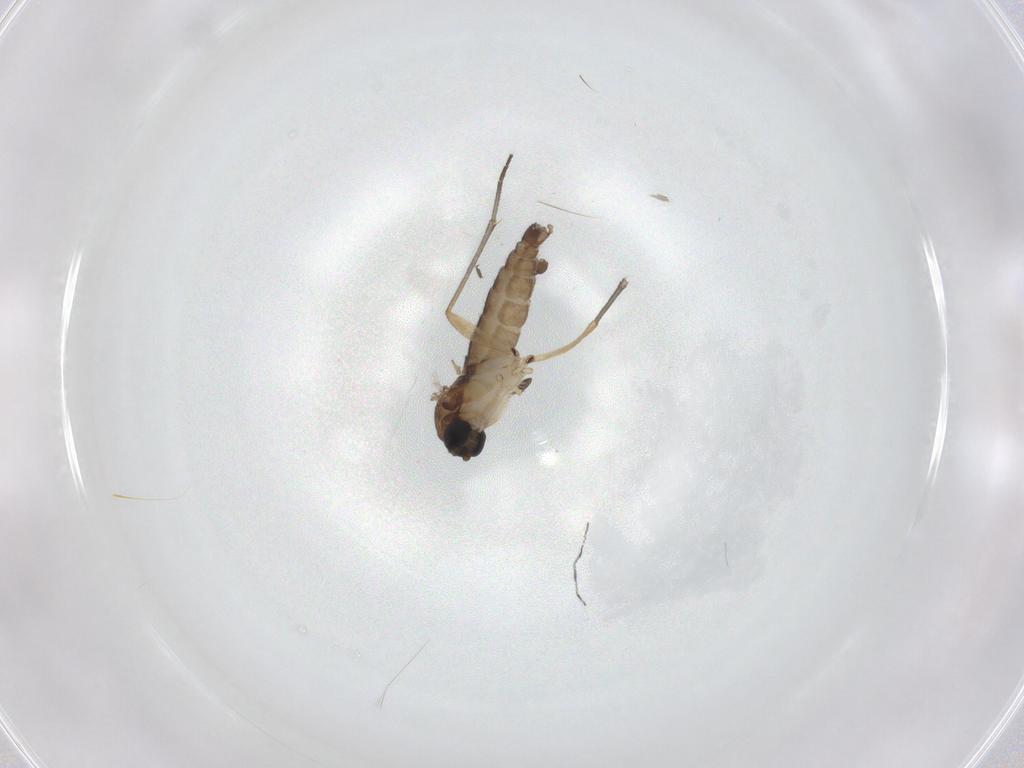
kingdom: Animalia
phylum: Arthropoda
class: Insecta
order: Diptera
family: Sciaridae
